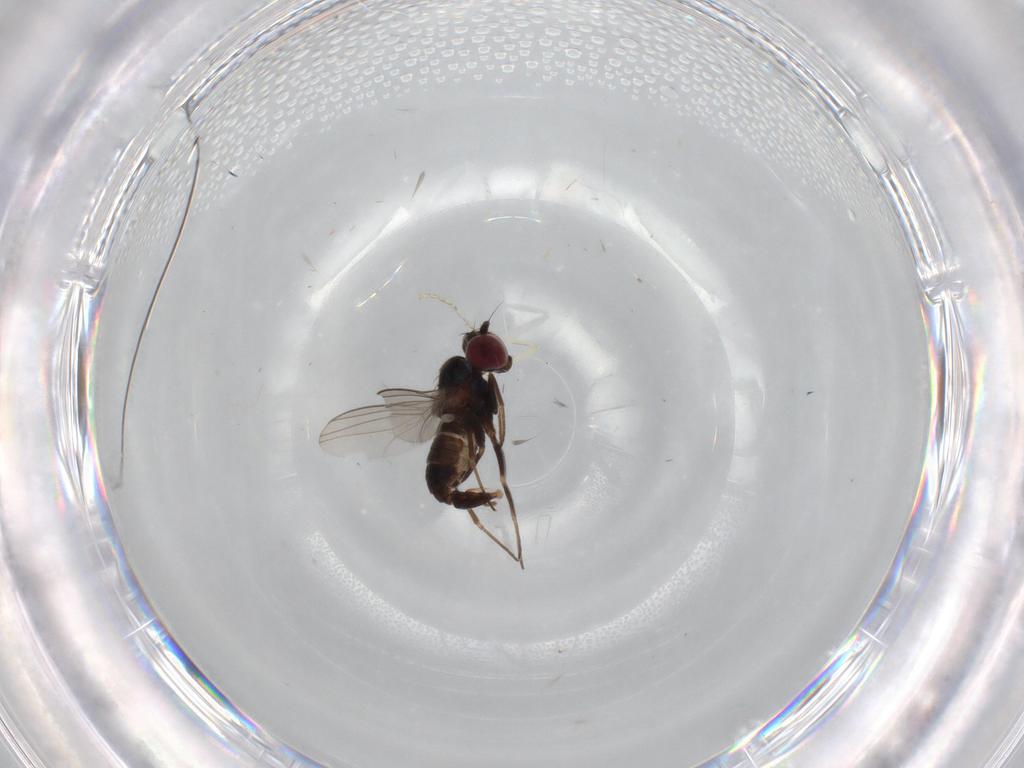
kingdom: Animalia
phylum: Arthropoda
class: Insecta
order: Diptera
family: Dolichopodidae
